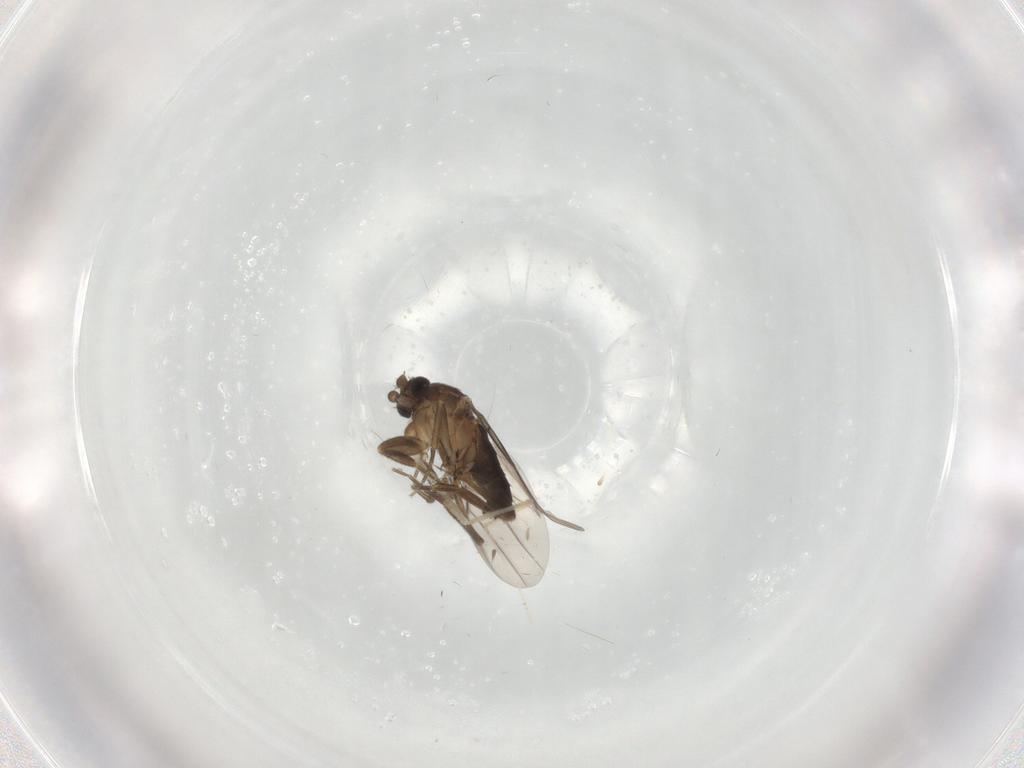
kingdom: Animalia
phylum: Arthropoda
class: Insecta
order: Diptera
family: Chironomidae
